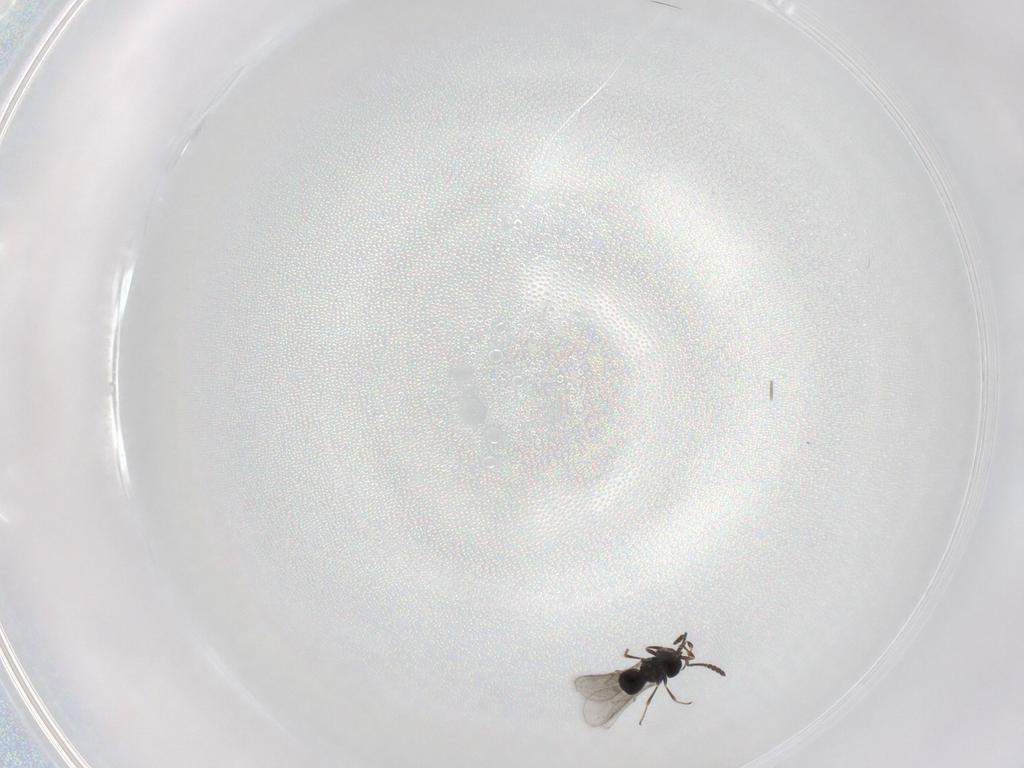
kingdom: Animalia
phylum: Arthropoda
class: Insecta
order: Hymenoptera
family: Scelionidae
